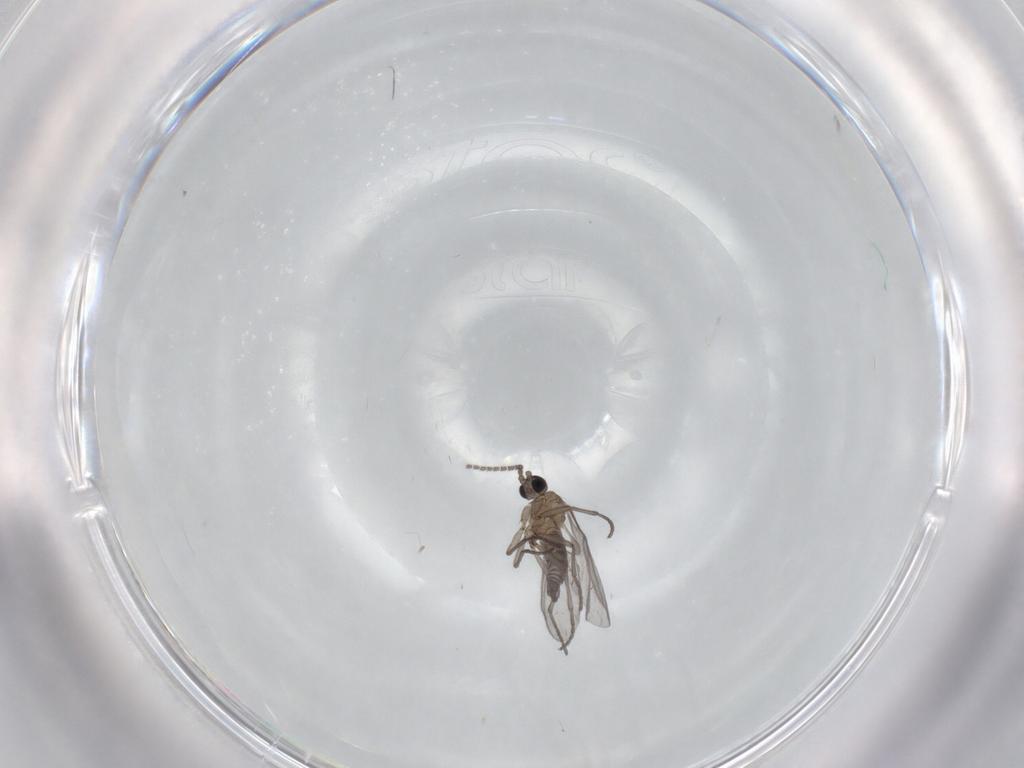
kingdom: Animalia
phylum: Arthropoda
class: Insecta
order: Diptera
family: Sciaridae
